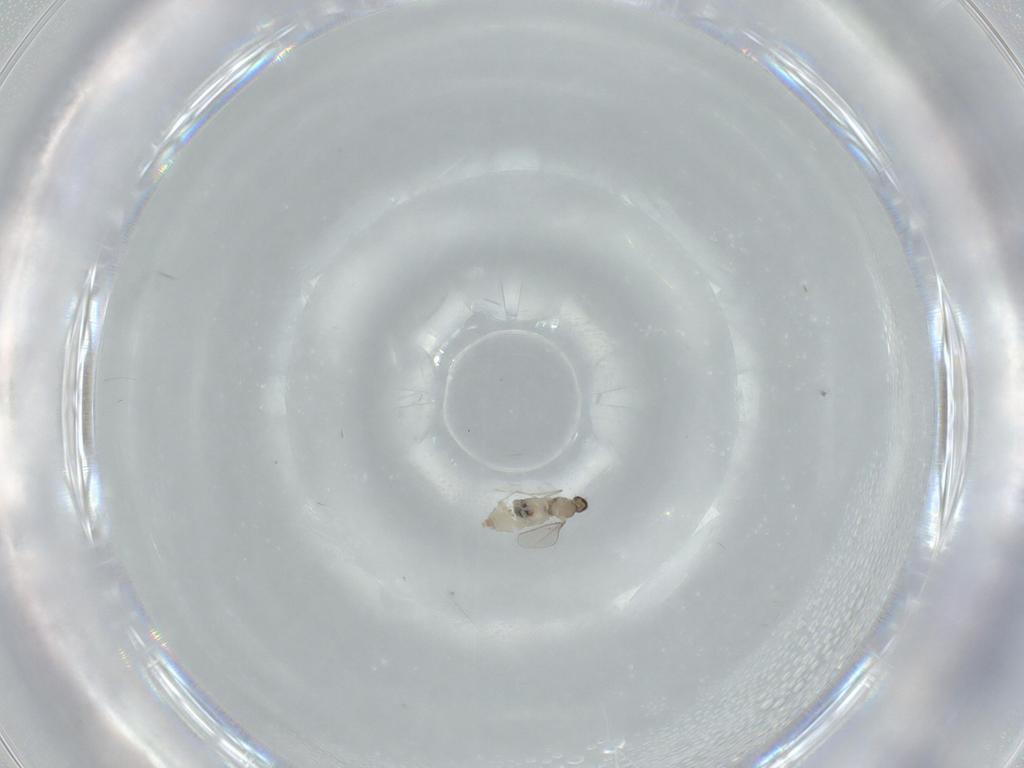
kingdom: Animalia
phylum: Arthropoda
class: Insecta
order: Diptera
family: Cecidomyiidae
